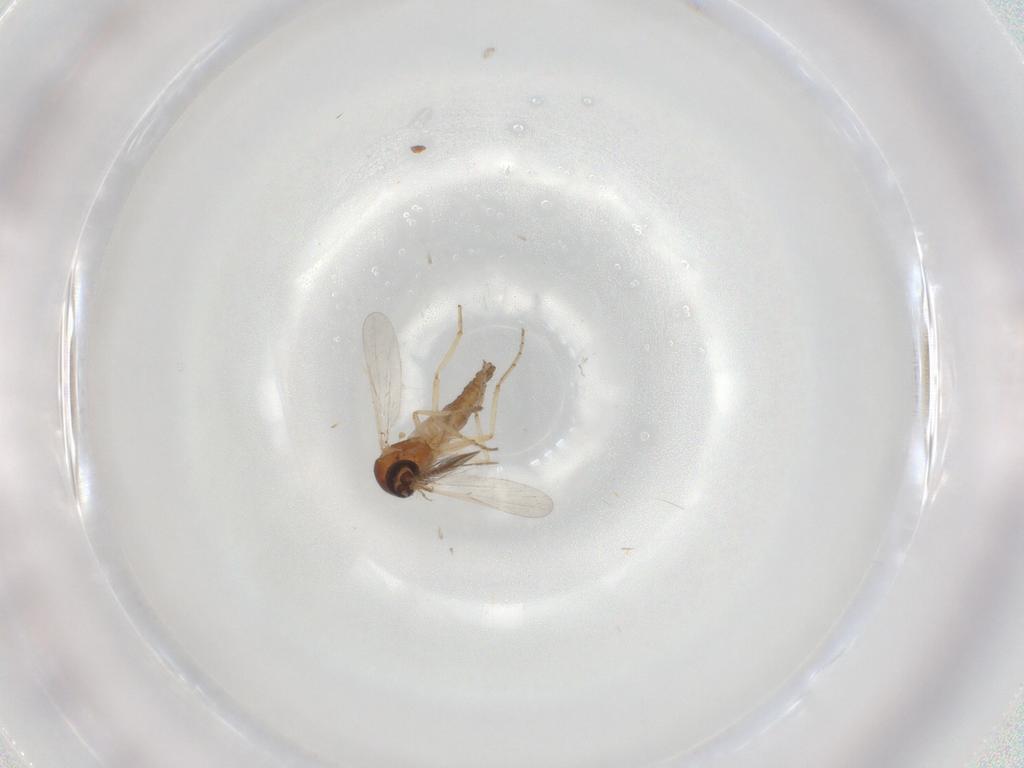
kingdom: Animalia
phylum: Arthropoda
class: Insecta
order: Diptera
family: Ceratopogonidae
